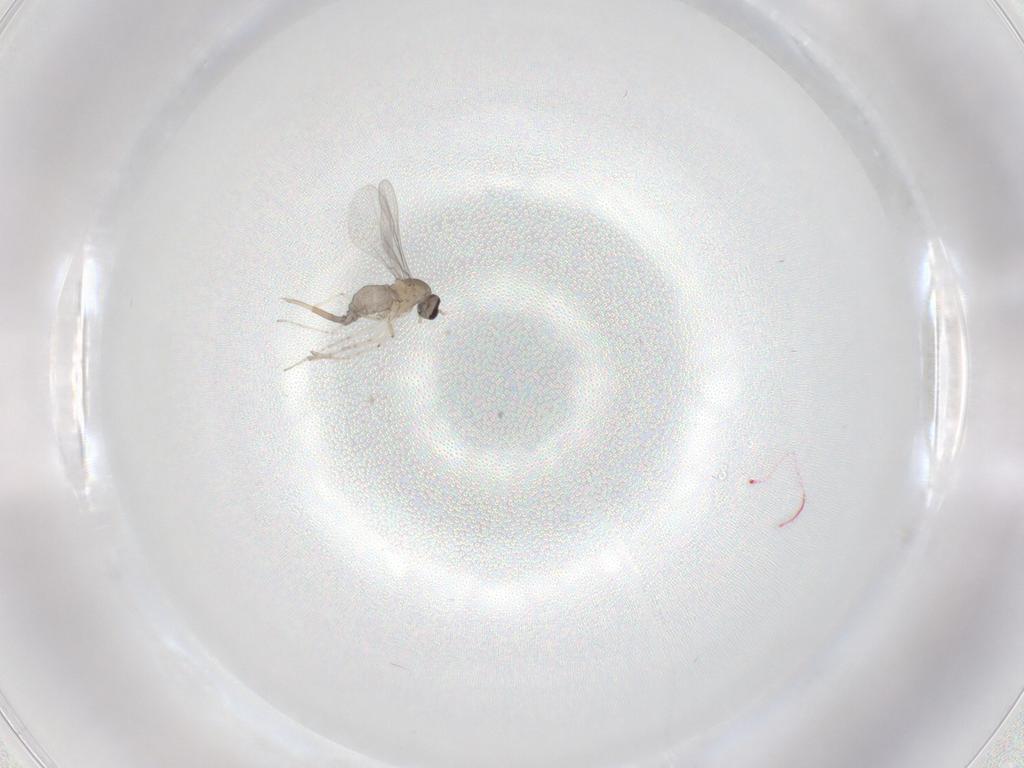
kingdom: Animalia
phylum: Arthropoda
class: Insecta
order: Diptera
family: Cecidomyiidae
